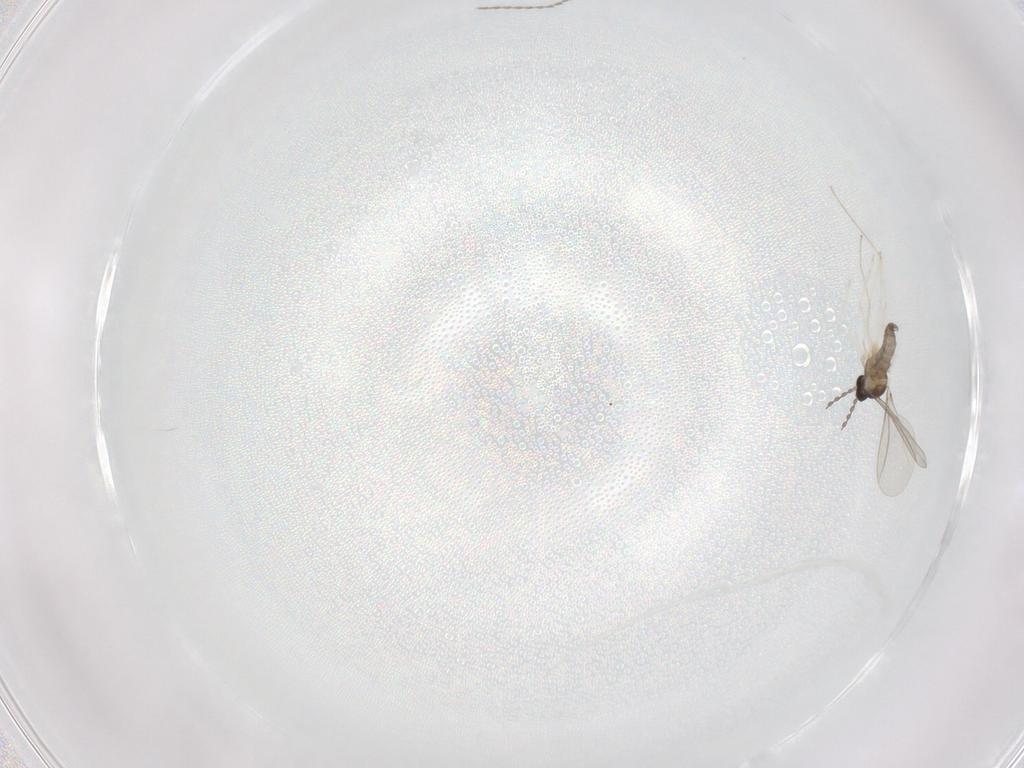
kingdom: Animalia
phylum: Arthropoda
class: Insecta
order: Diptera
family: Cecidomyiidae
